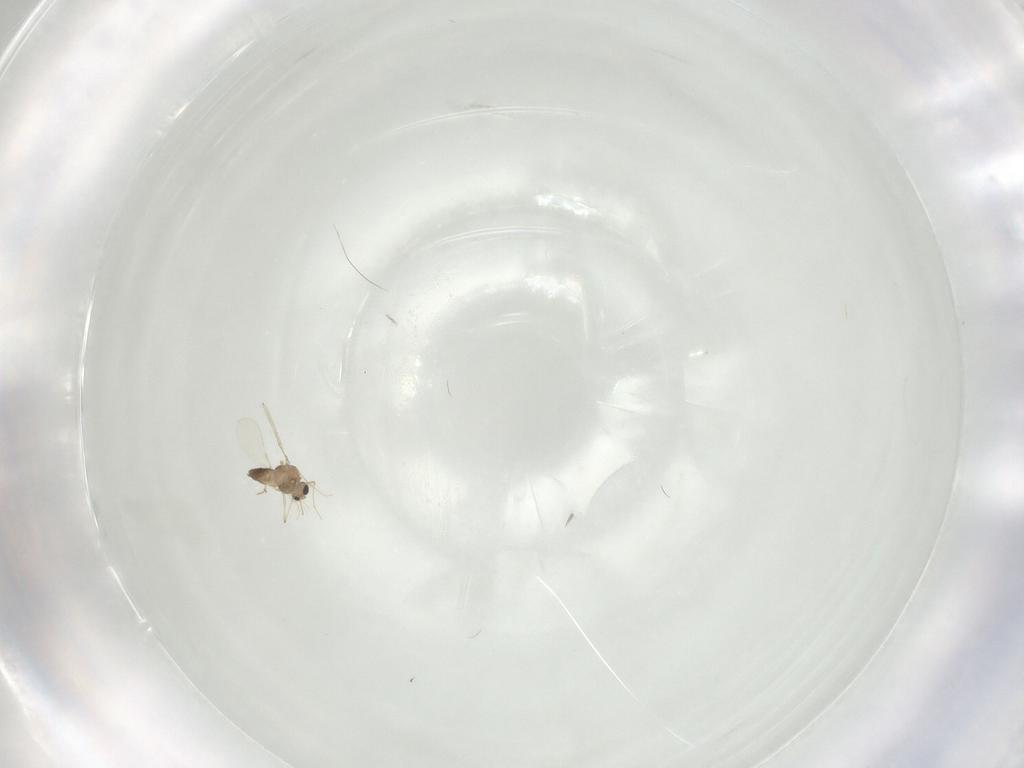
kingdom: Animalia
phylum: Arthropoda
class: Insecta
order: Diptera
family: Chironomidae
